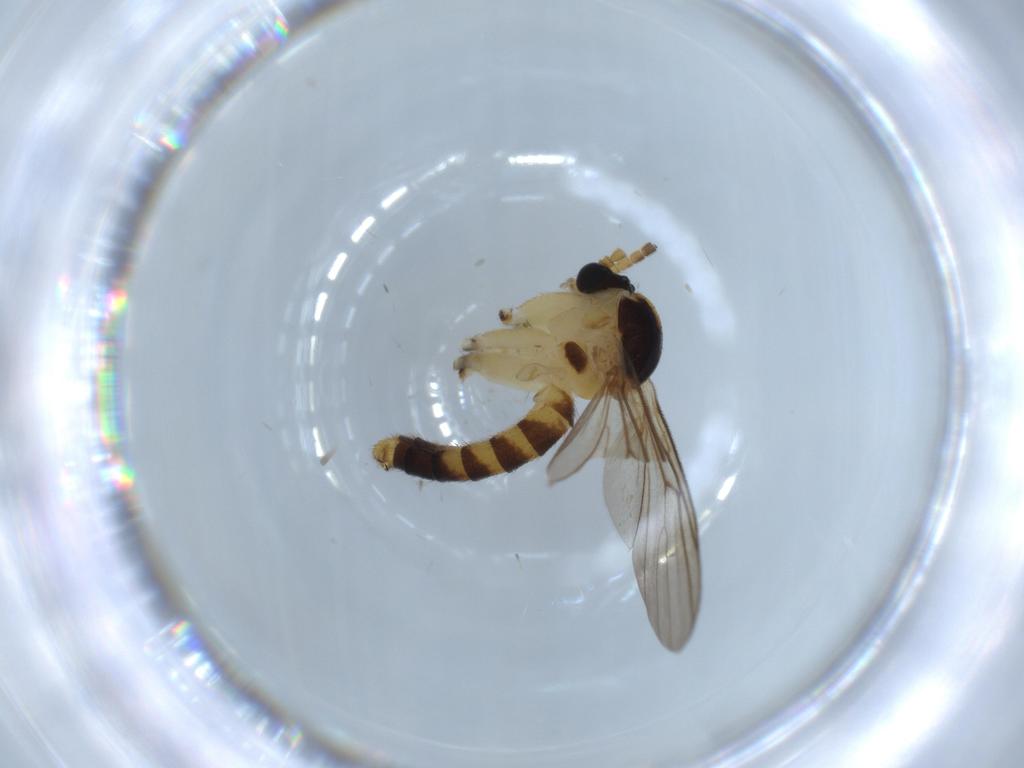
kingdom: Animalia
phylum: Arthropoda
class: Insecta
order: Diptera
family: Mycetophilidae
